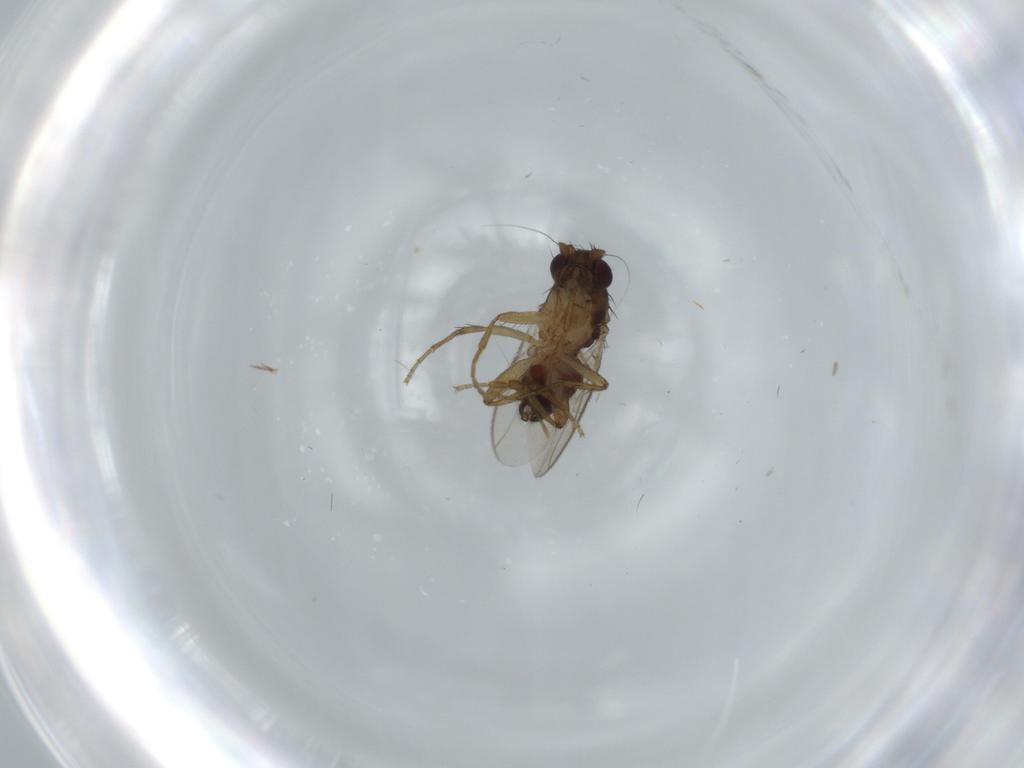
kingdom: Animalia
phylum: Arthropoda
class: Insecta
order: Diptera
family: Sphaeroceridae
